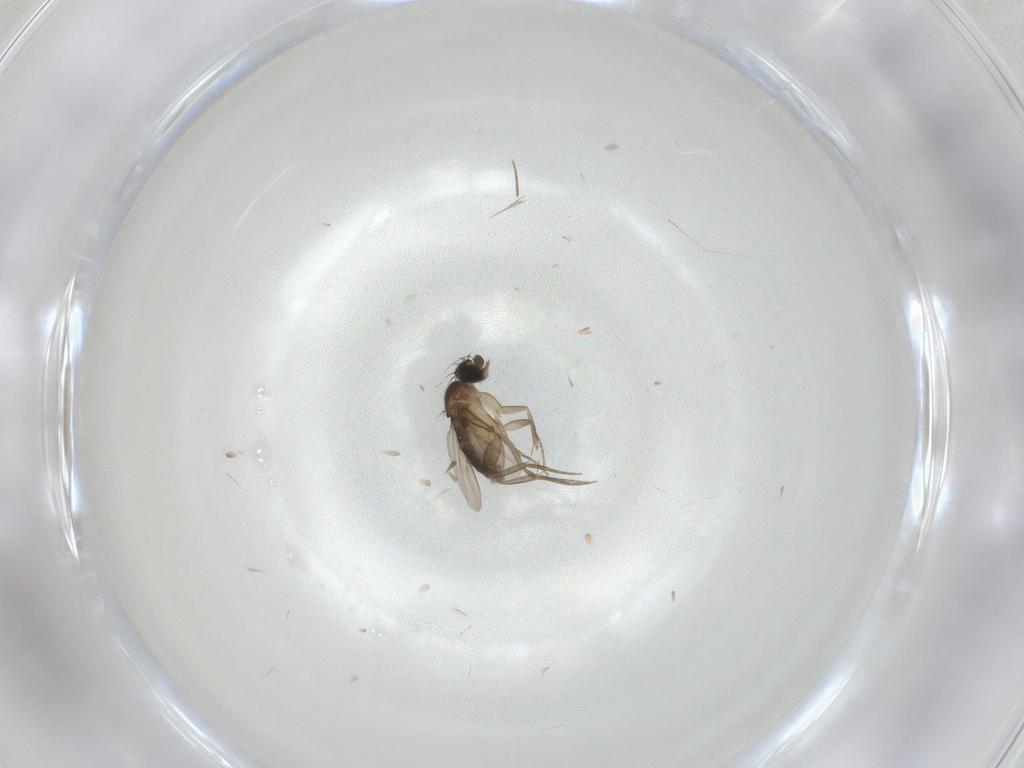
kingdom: Animalia
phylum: Arthropoda
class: Insecta
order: Diptera
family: Phoridae
